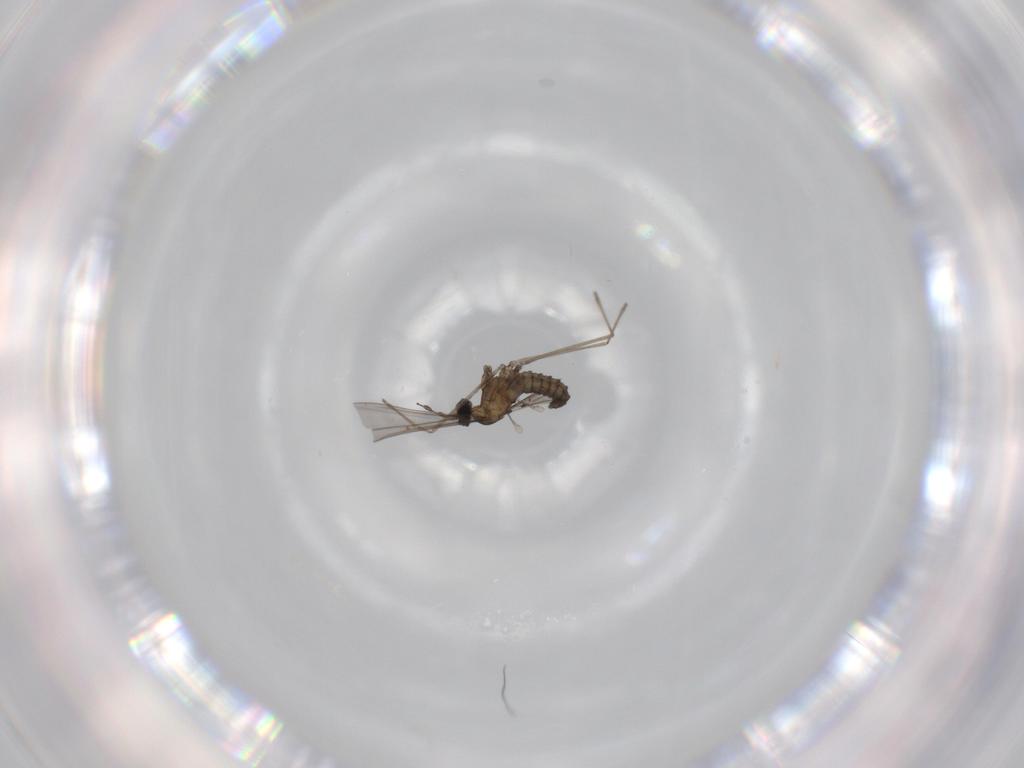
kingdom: Animalia
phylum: Arthropoda
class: Insecta
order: Diptera
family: Cecidomyiidae
